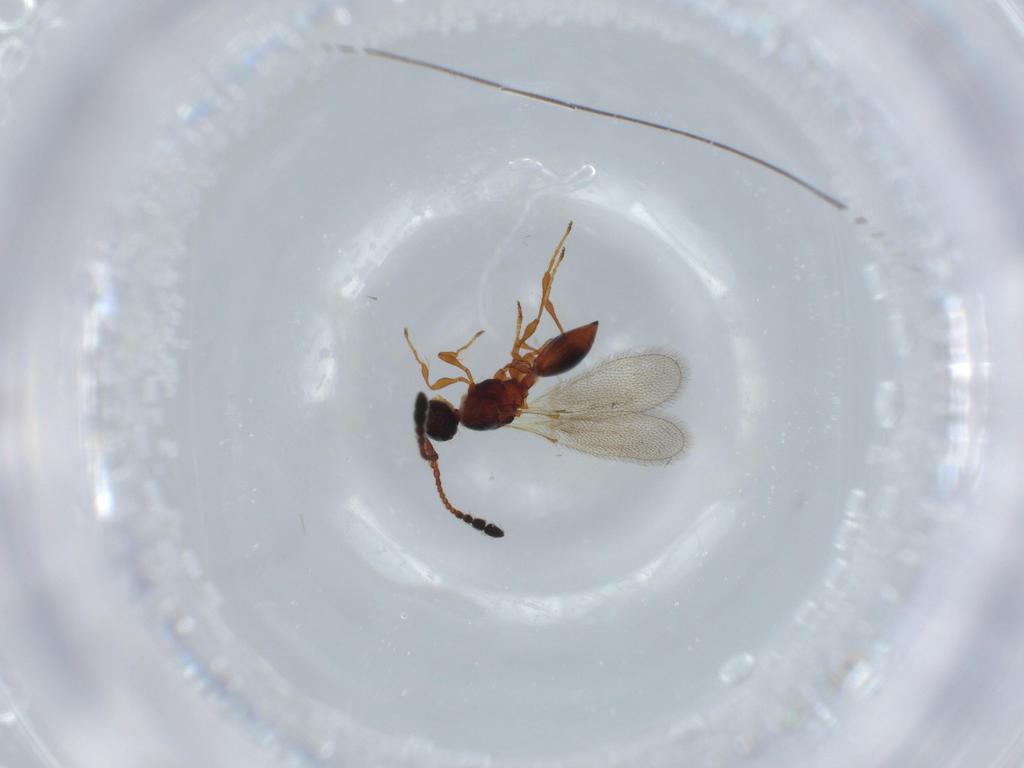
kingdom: Animalia
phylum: Arthropoda
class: Insecta
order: Hymenoptera
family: Diapriidae
